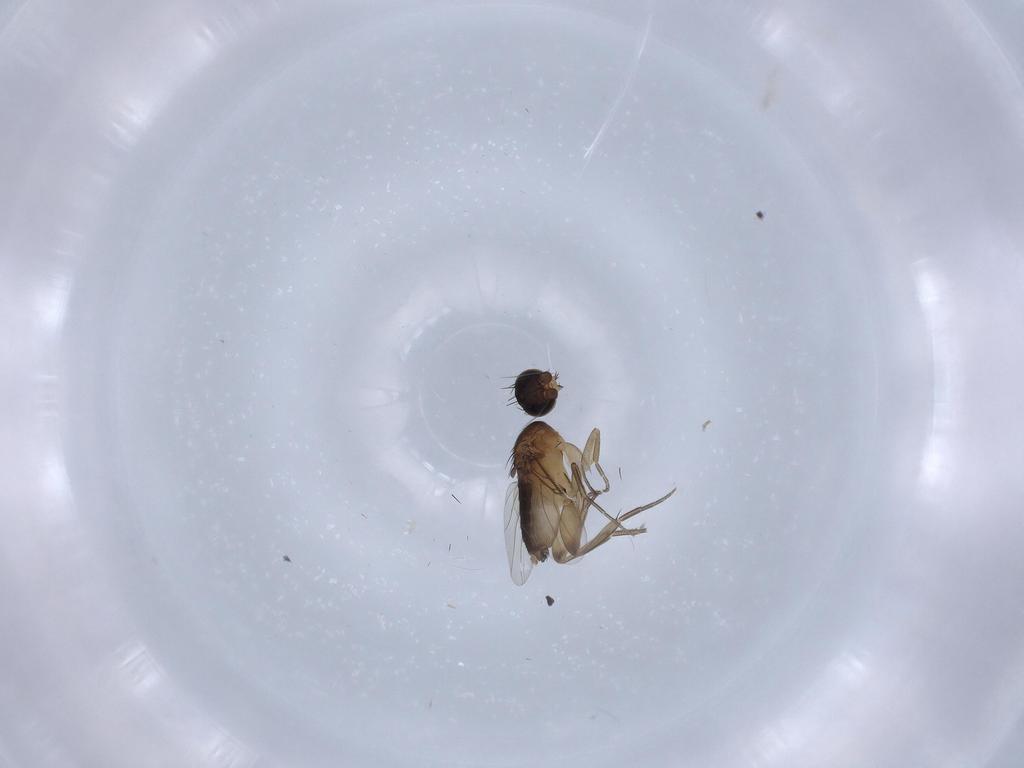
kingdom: Animalia
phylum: Arthropoda
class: Insecta
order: Diptera
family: Phoridae
